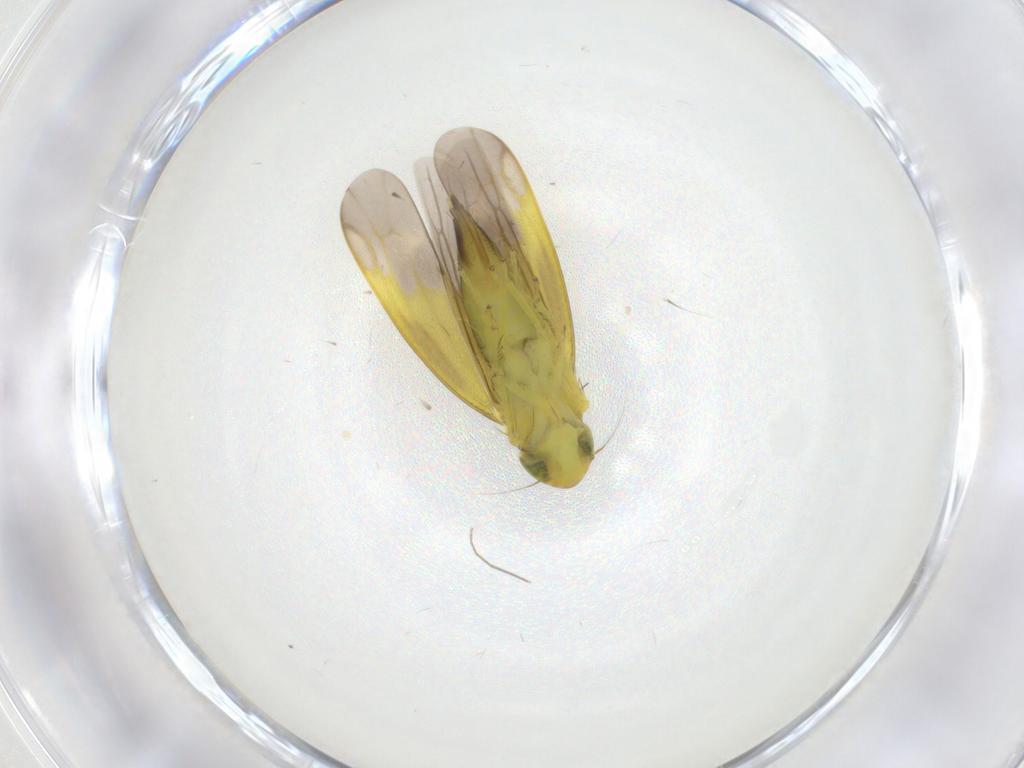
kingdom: Animalia
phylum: Arthropoda
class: Insecta
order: Hemiptera
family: Cicadellidae
